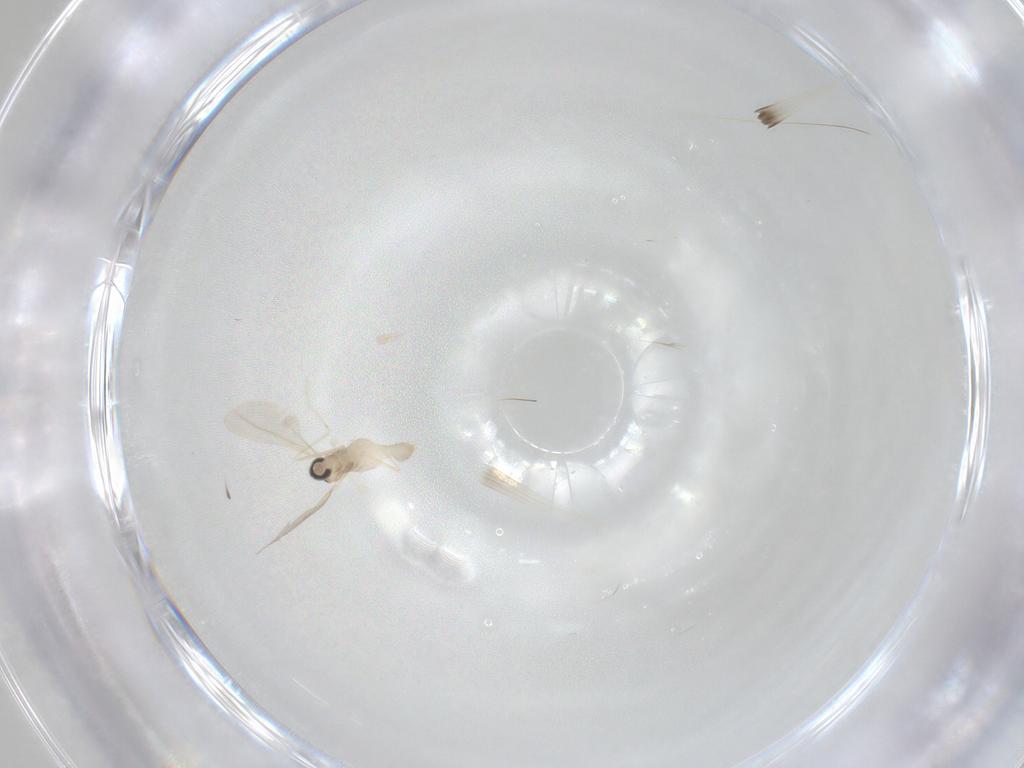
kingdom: Animalia
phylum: Arthropoda
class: Insecta
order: Diptera
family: Cecidomyiidae
